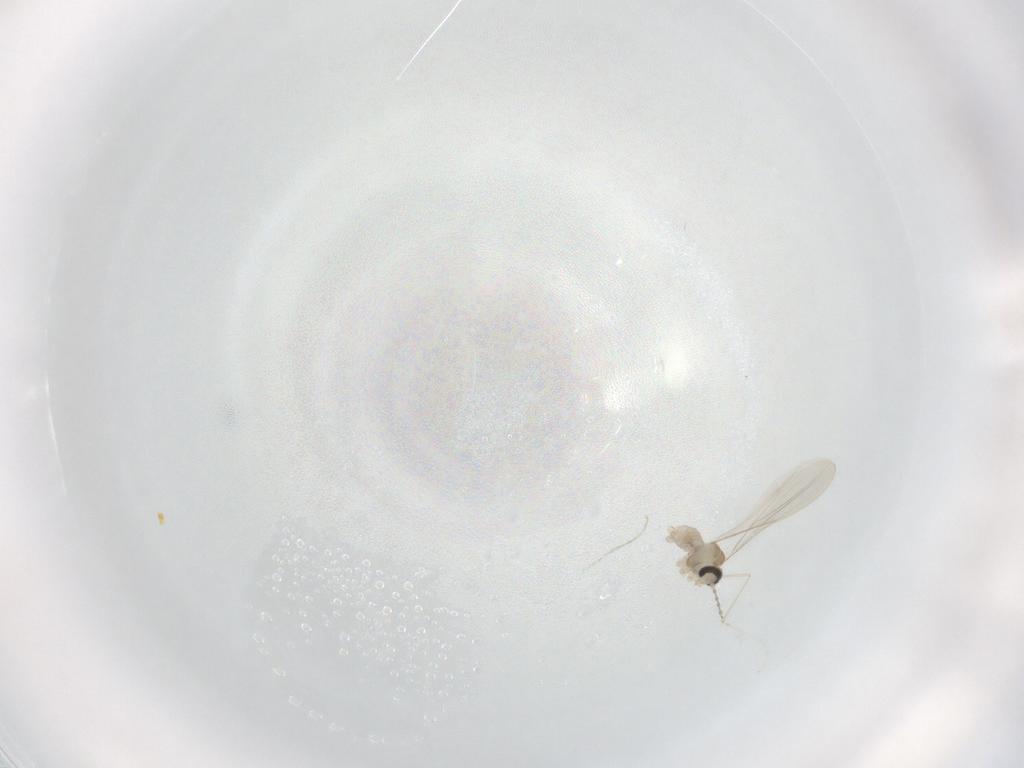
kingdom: Animalia
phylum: Arthropoda
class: Insecta
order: Diptera
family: Cecidomyiidae
